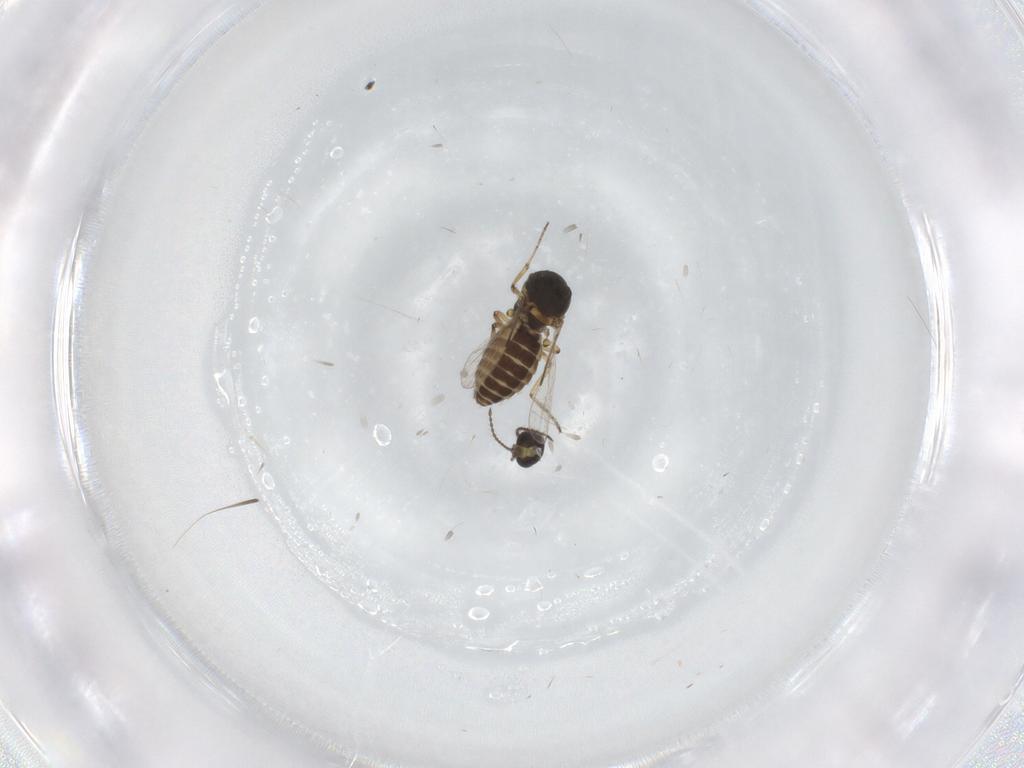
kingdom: Animalia
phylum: Arthropoda
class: Insecta
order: Diptera
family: Ceratopogonidae
